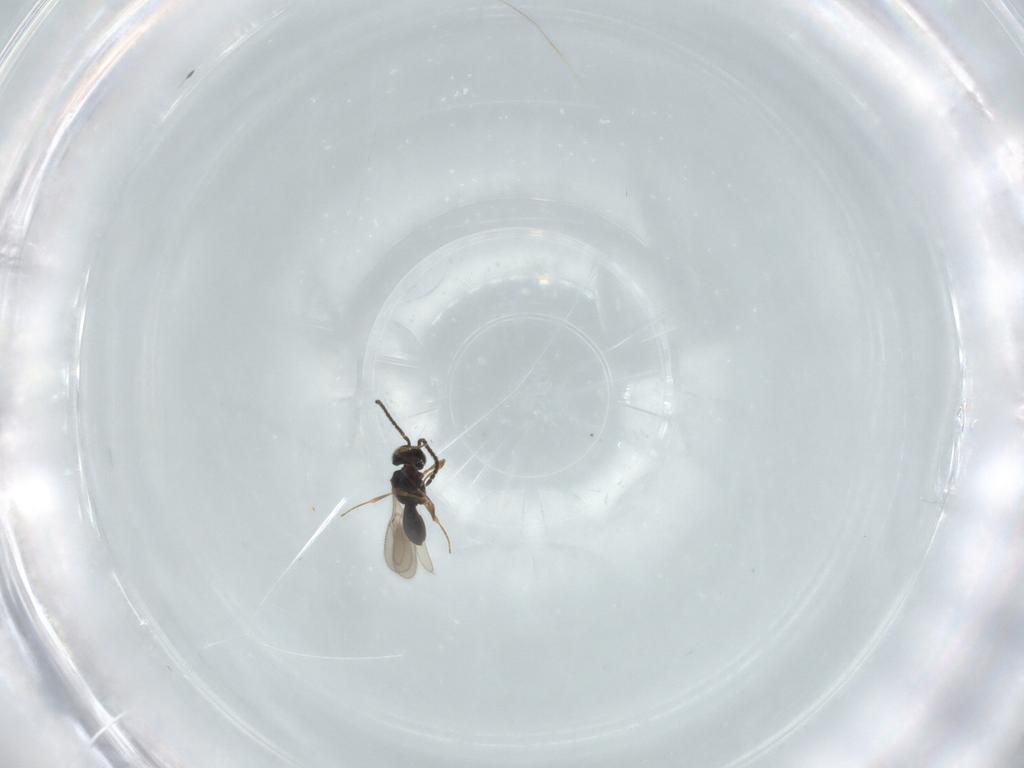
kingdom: Animalia
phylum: Arthropoda
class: Insecta
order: Hymenoptera
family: Scelionidae
